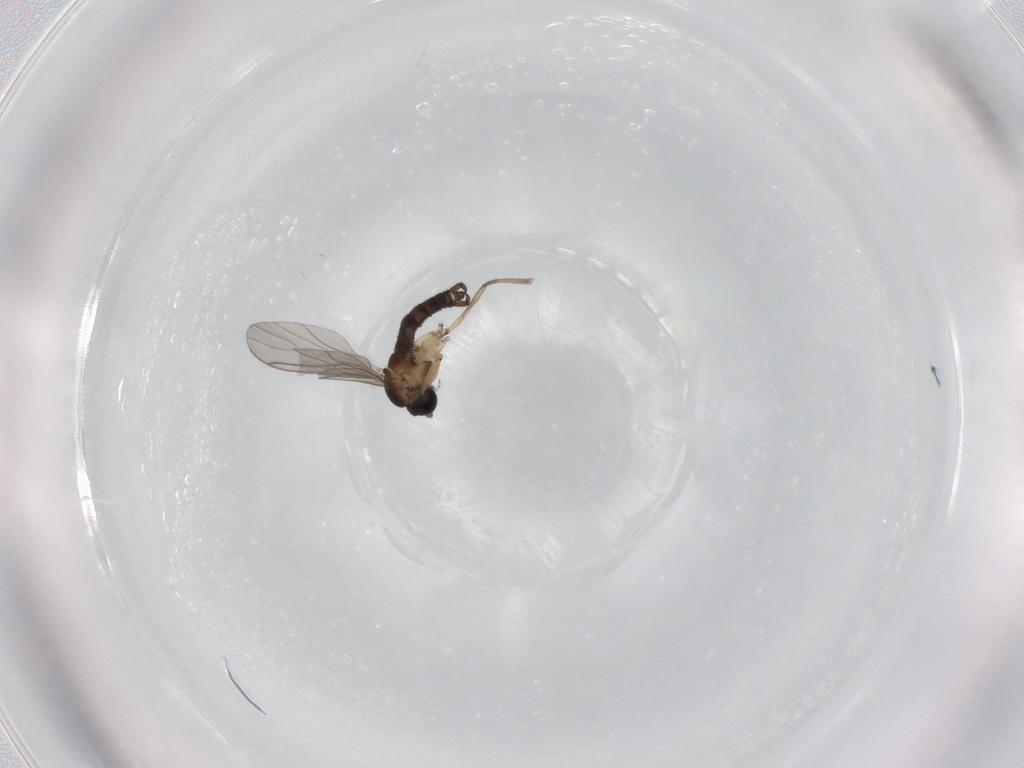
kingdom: Animalia
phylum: Arthropoda
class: Insecta
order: Diptera
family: Sciaridae
